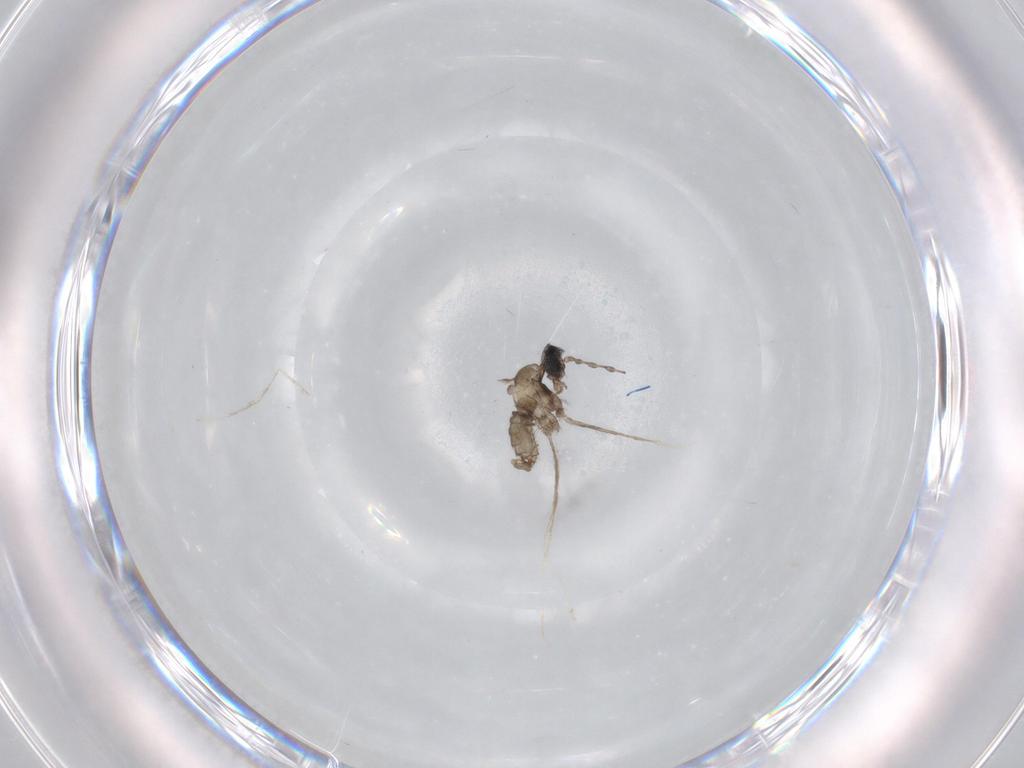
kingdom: Animalia
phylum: Arthropoda
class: Insecta
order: Diptera
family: Cecidomyiidae
